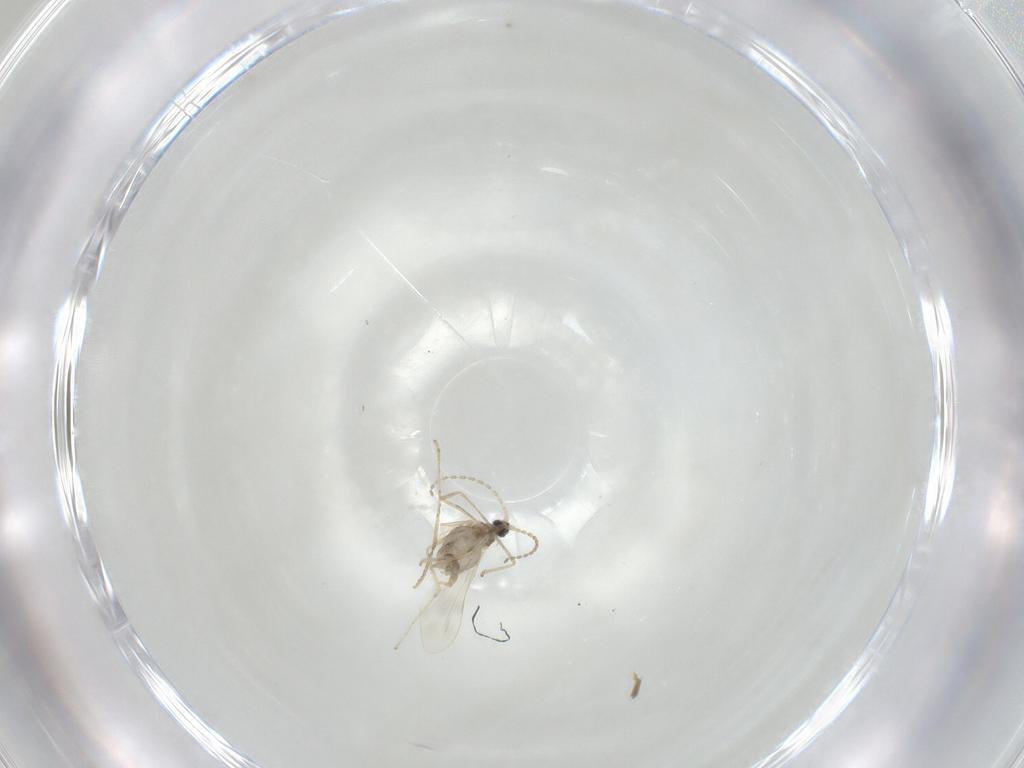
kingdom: Animalia
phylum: Arthropoda
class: Insecta
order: Diptera
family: Cecidomyiidae
